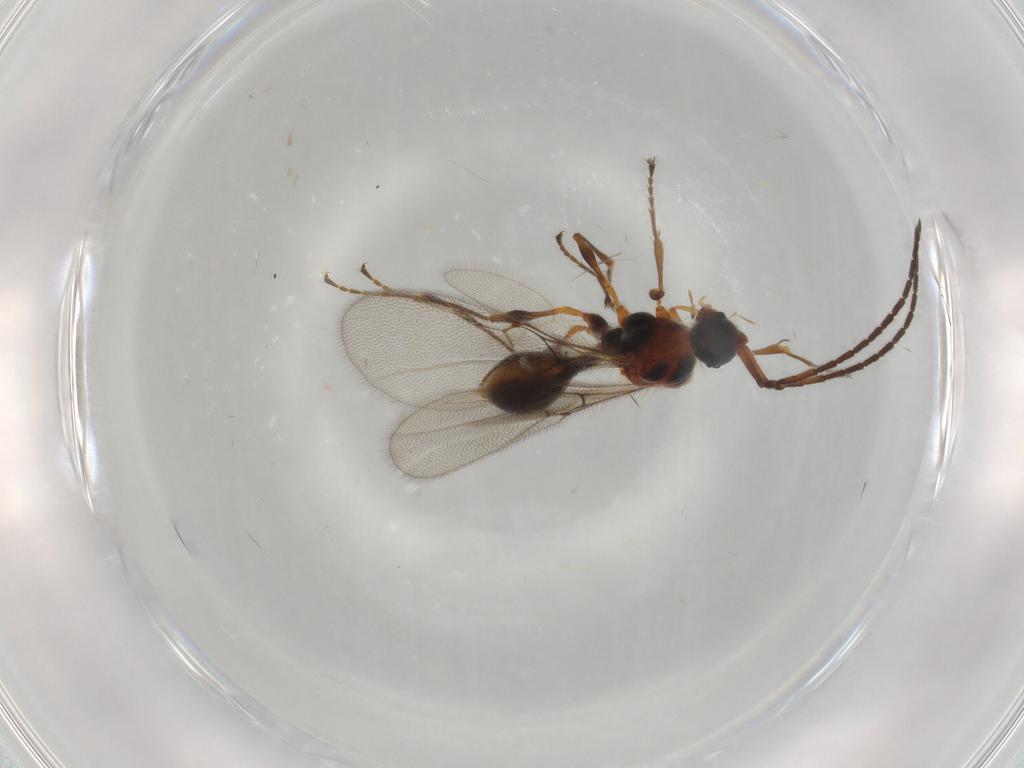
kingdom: Animalia
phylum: Arthropoda
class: Insecta
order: Hymenoptera
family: Diapriidae
